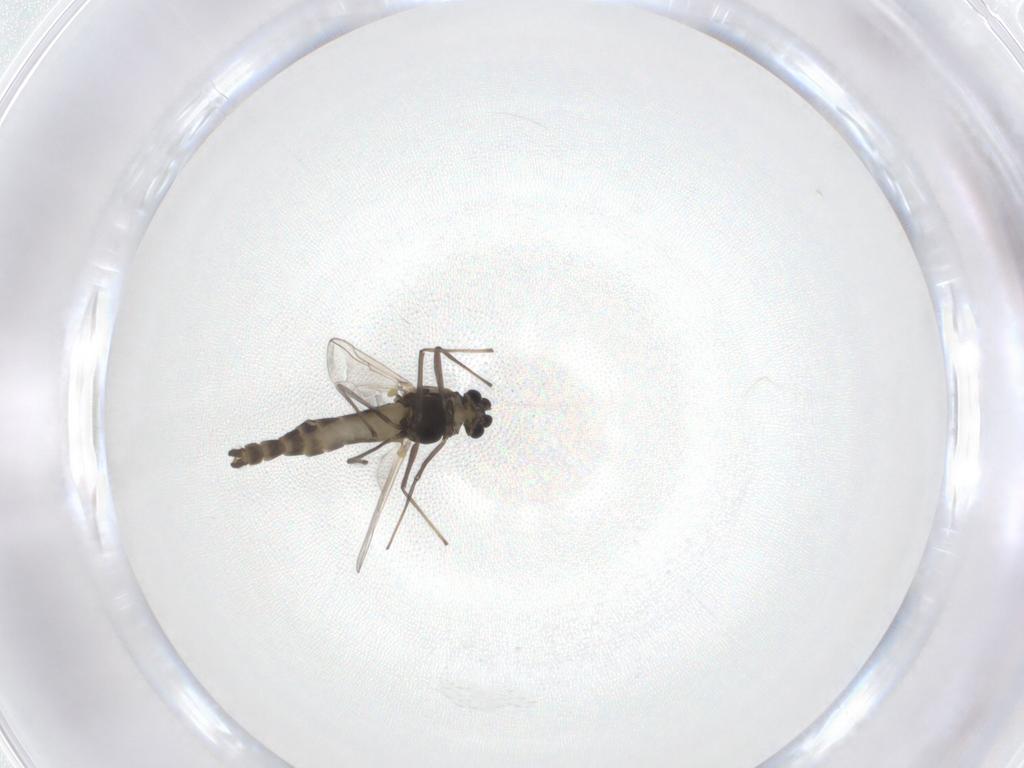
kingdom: Animalia
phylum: Arthropoda
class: Insecta
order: Diptera
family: Chironomidae
